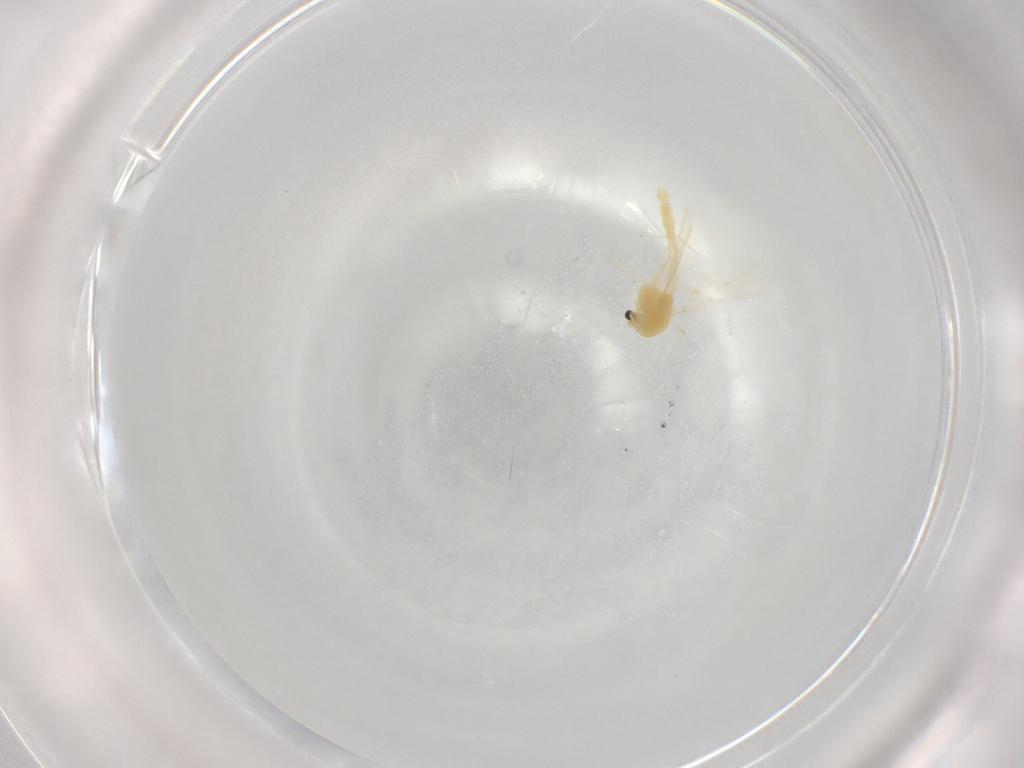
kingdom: Animalia
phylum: Arthropoda
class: Insecta
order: Diptera
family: Chironomidae
